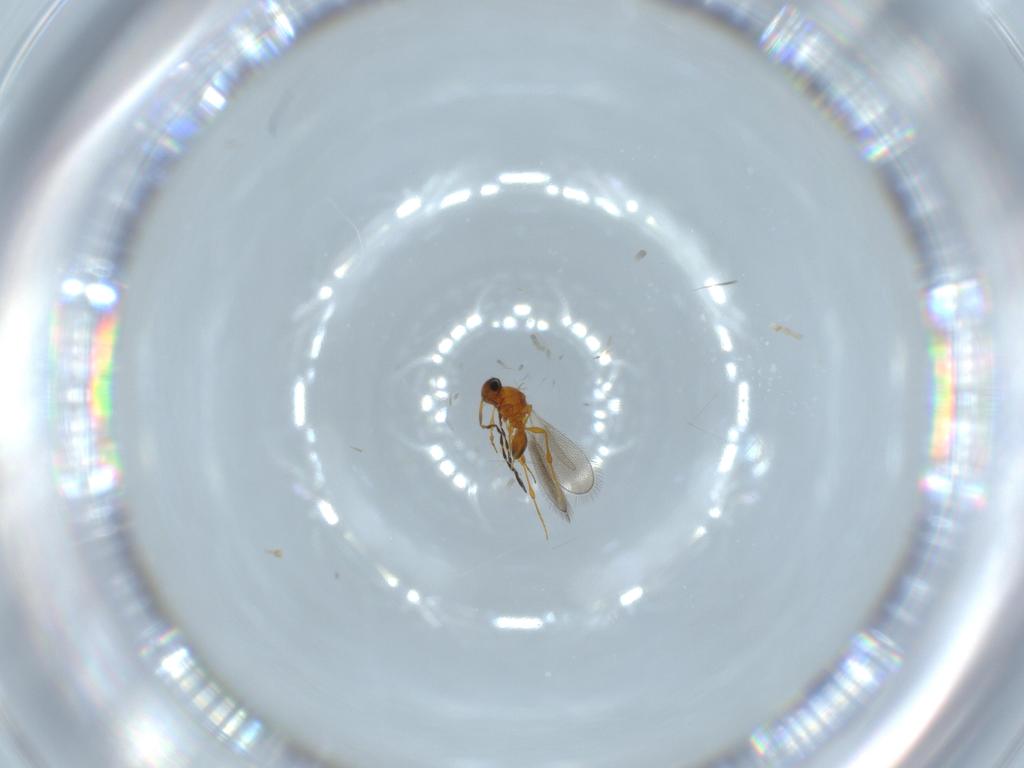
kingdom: Animalia
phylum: Arthropoda
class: Insecta
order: Hymenoptera
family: Platygastridae
